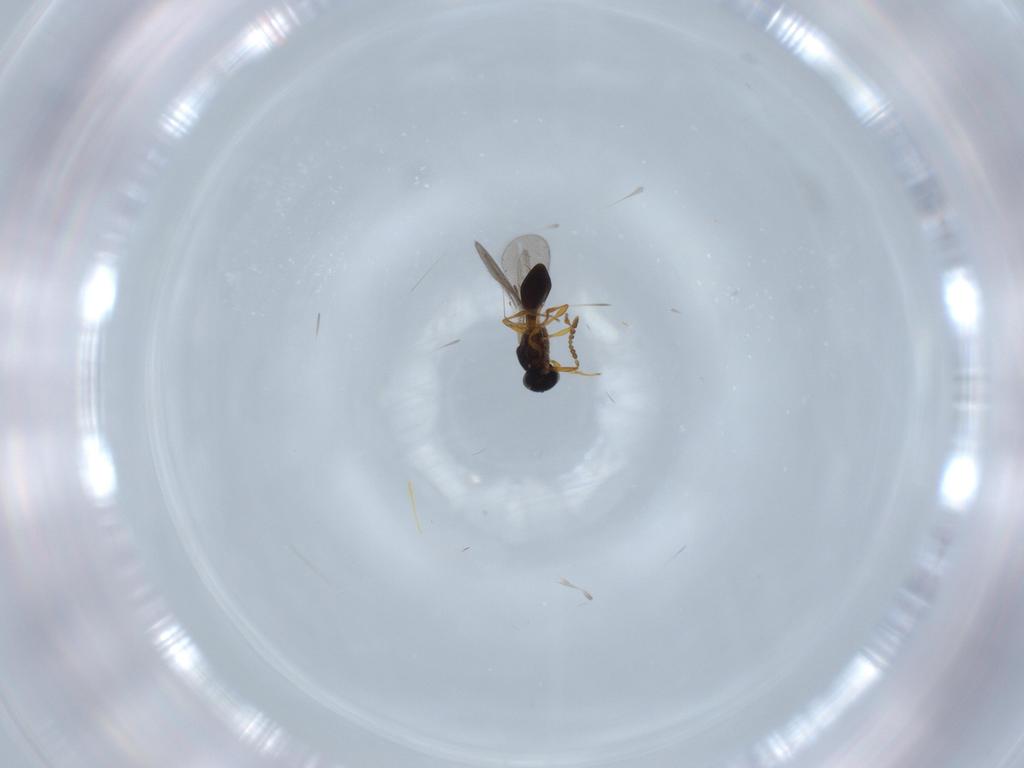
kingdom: Animalia
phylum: Arthropoda
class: Insecta
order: Hymenoptera
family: Platygastridae
